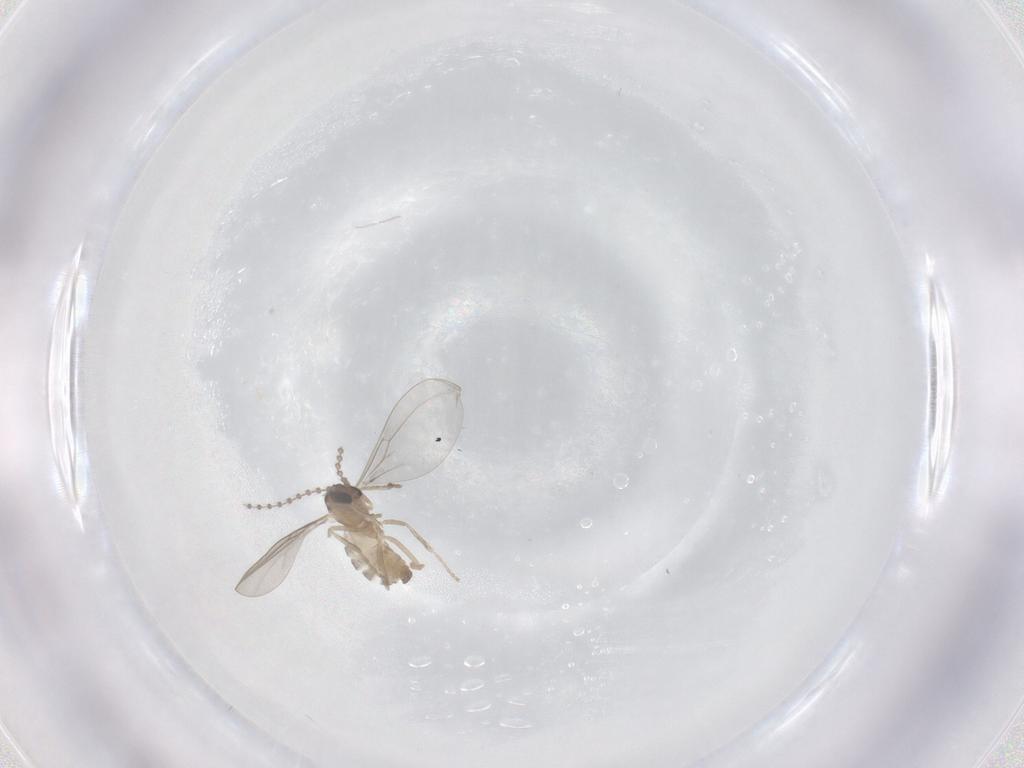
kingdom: Animalia
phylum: Arthropoda
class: Insecta
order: Diptera
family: Cecidomyiidae
